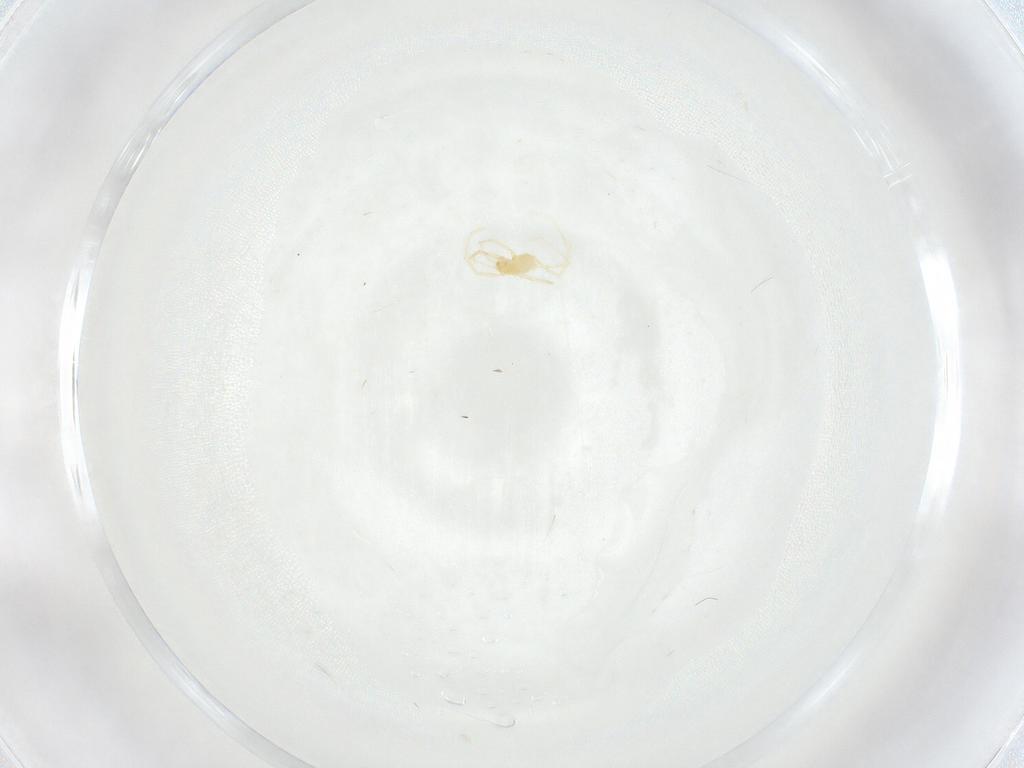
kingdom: Animalia
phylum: Arthropoda
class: Arachnida
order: Trombidiformes
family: Erythraeidae
